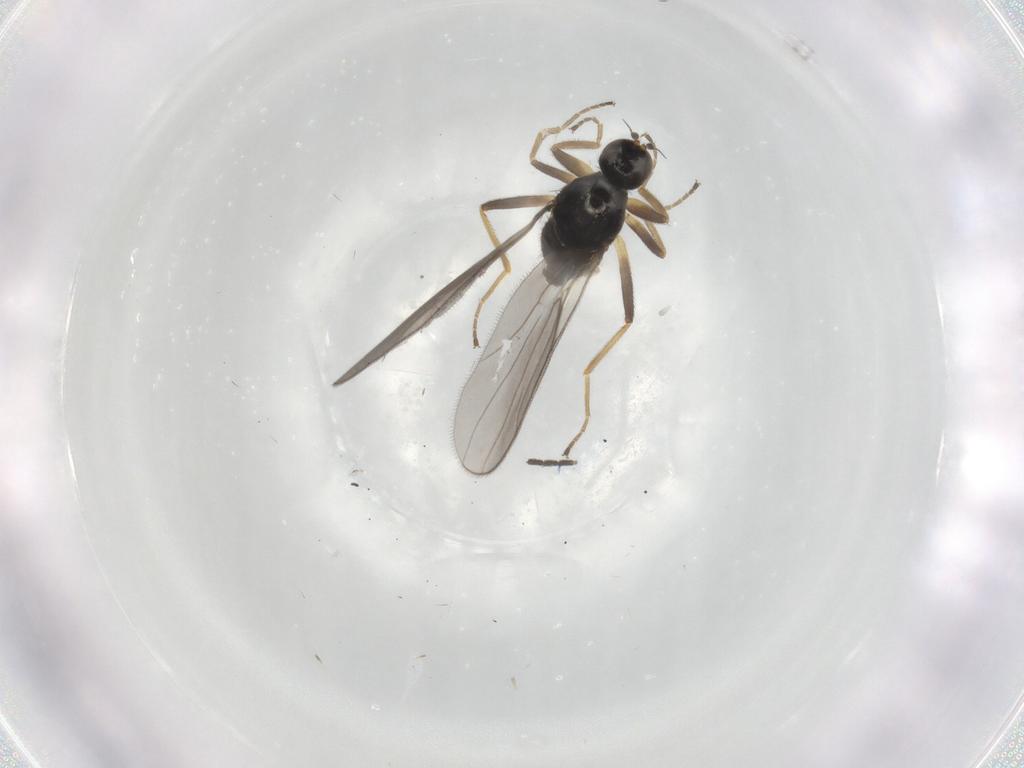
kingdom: Animalia
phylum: Arthropoda
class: Insecta
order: Diptera
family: Hybotidae
